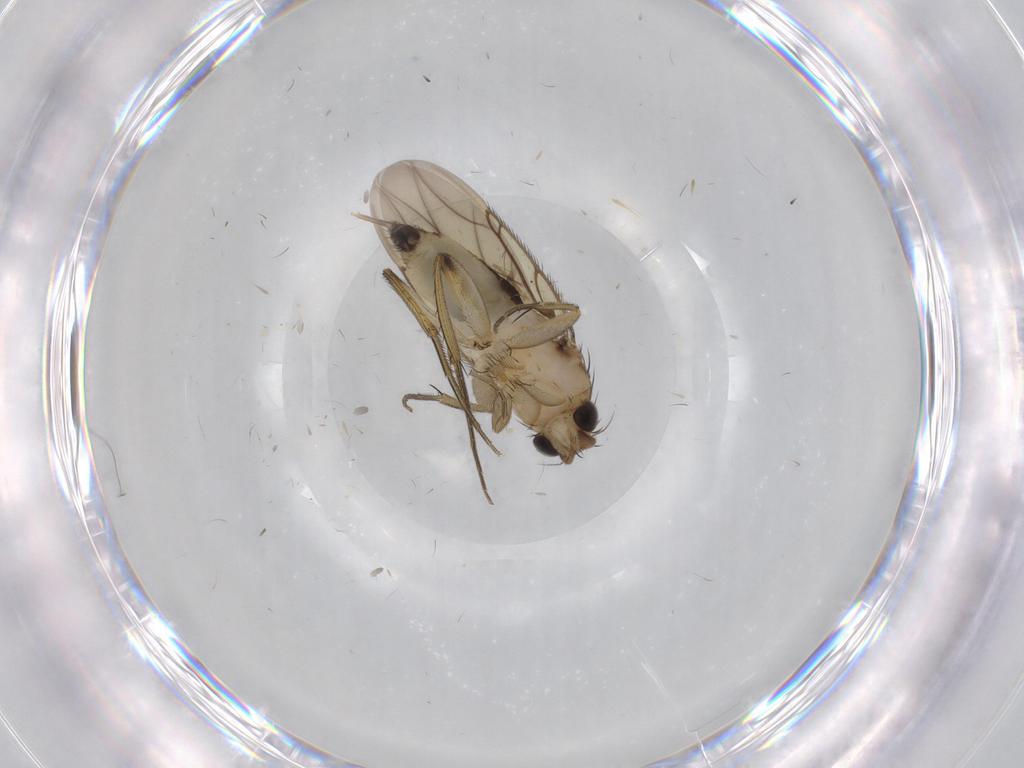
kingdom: Animalia
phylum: Arthropoda
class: Insecta
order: Diptera
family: Phoridae
